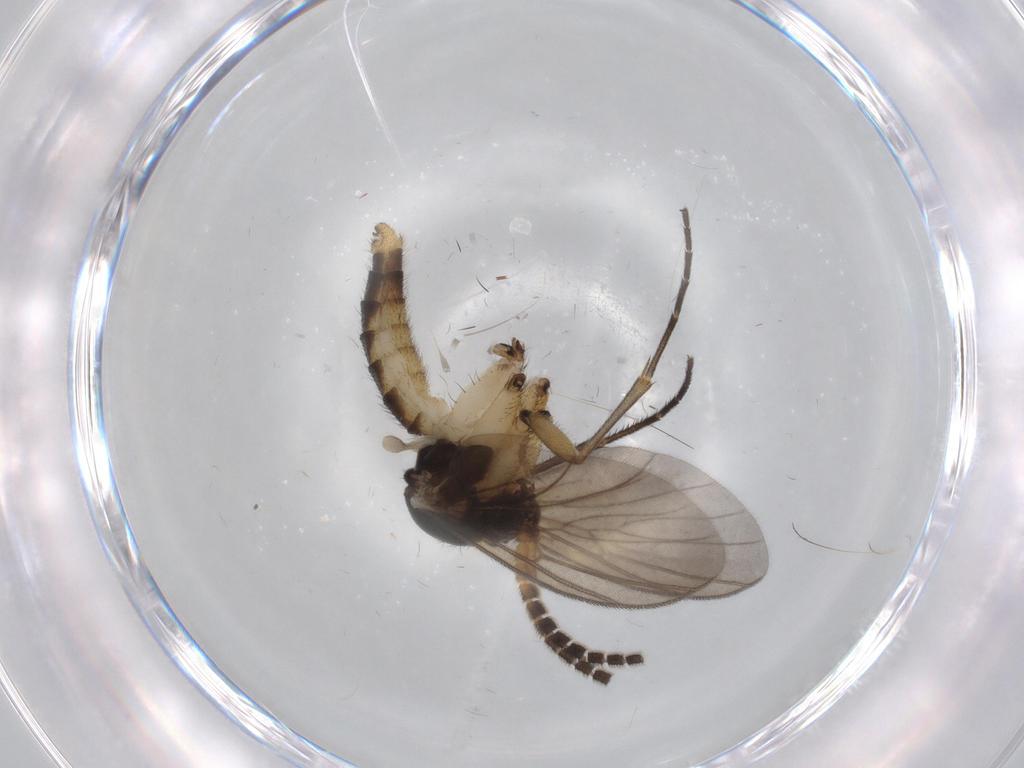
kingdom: Animalia
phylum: Arthropoda
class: Insecta
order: Diptera
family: Sphaeroceridae
